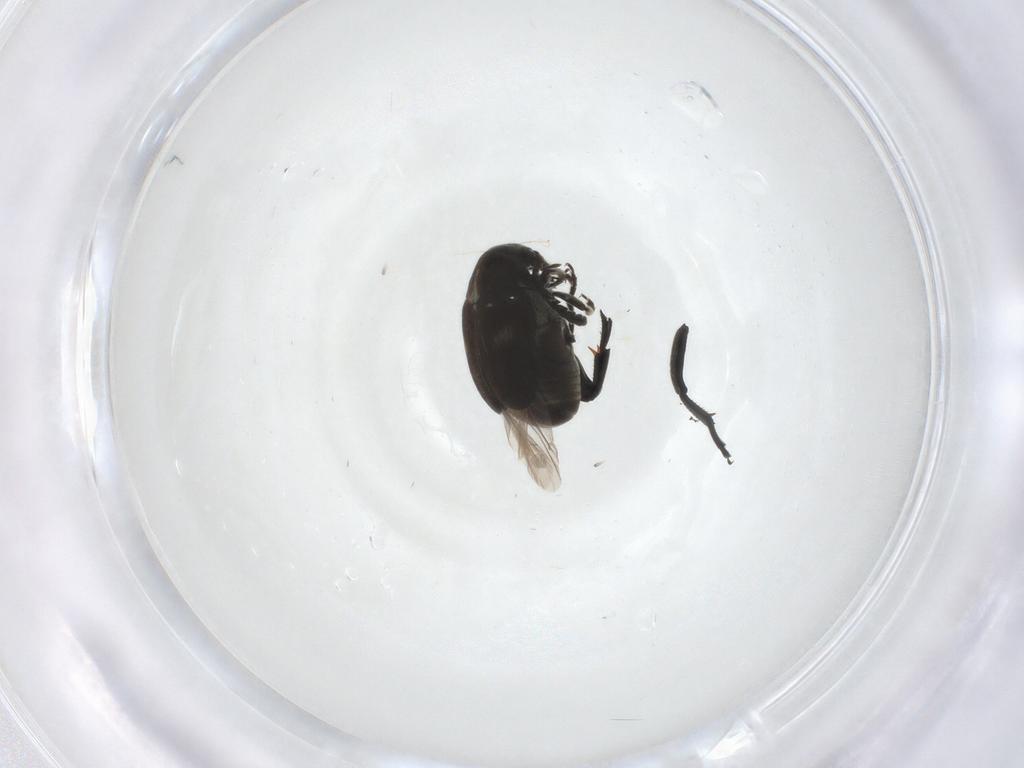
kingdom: Animalia
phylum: Arthropoda
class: Insecta
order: Coleoptera
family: Chrysomelidae
